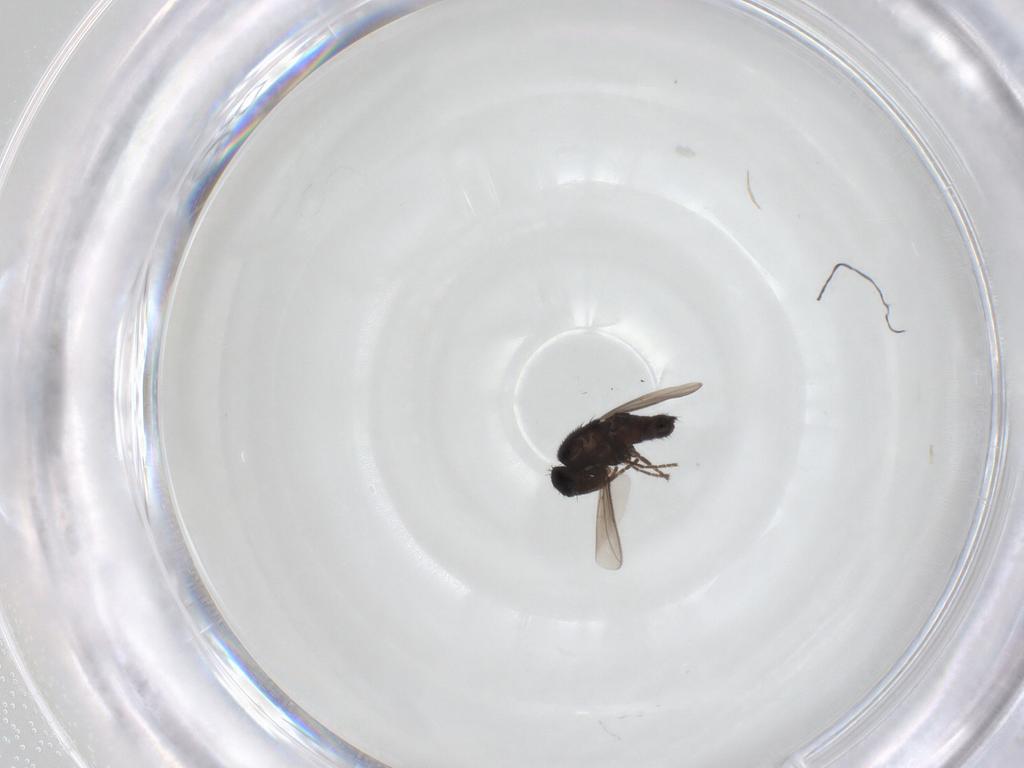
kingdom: Animalia
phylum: Arthropoda
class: Insecta
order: Diptera
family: Sphaeroceridae
